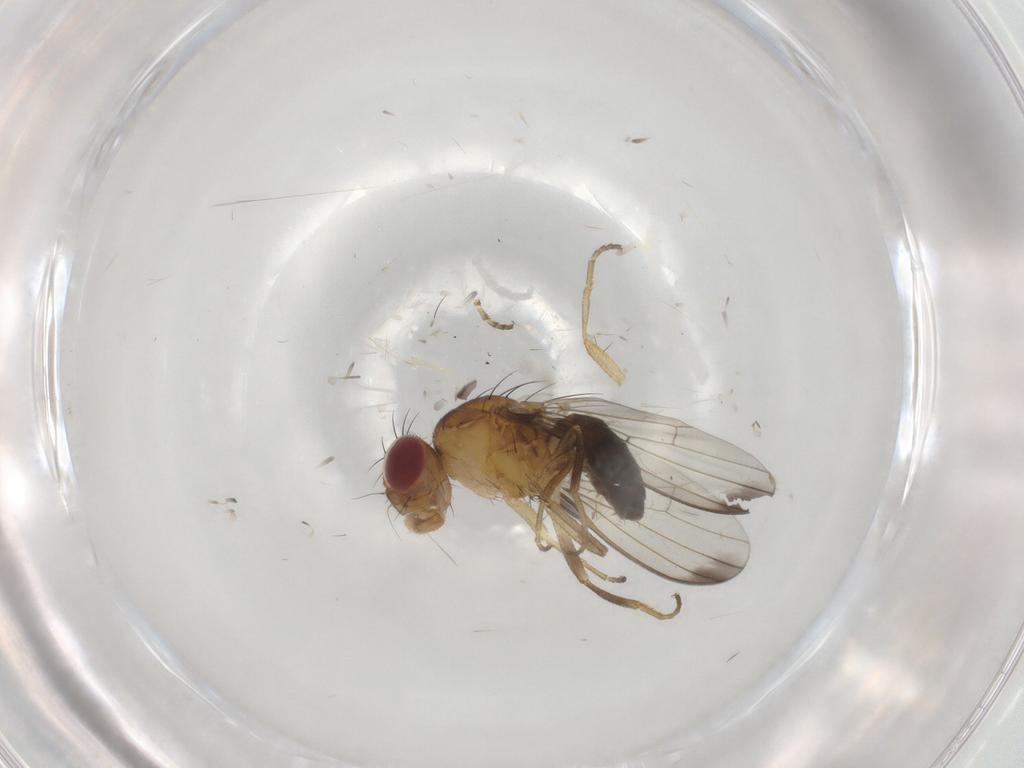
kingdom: Animalia
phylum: Arthropoda
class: Insecta
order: Diptera
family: Piophilidae
